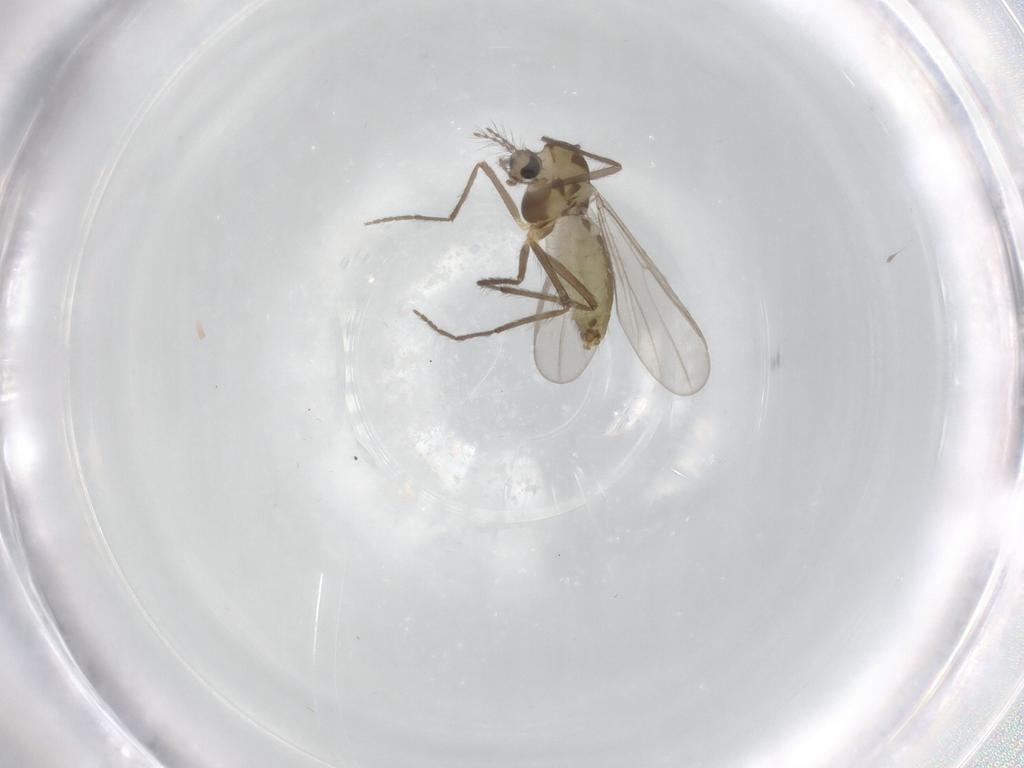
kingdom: Animalia
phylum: Arthropoda
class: Insecta
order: Diptera
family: Chironomidae
